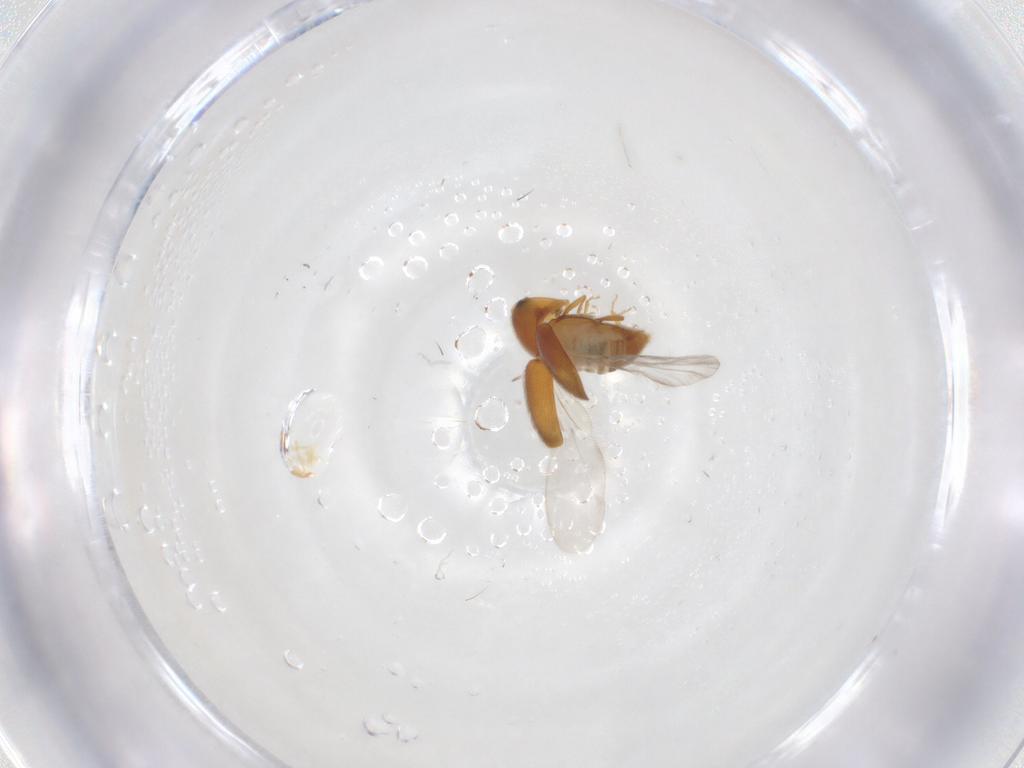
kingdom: Animalia
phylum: Arthropoda
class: Insecta
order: Coleoptera
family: Corylophidae
